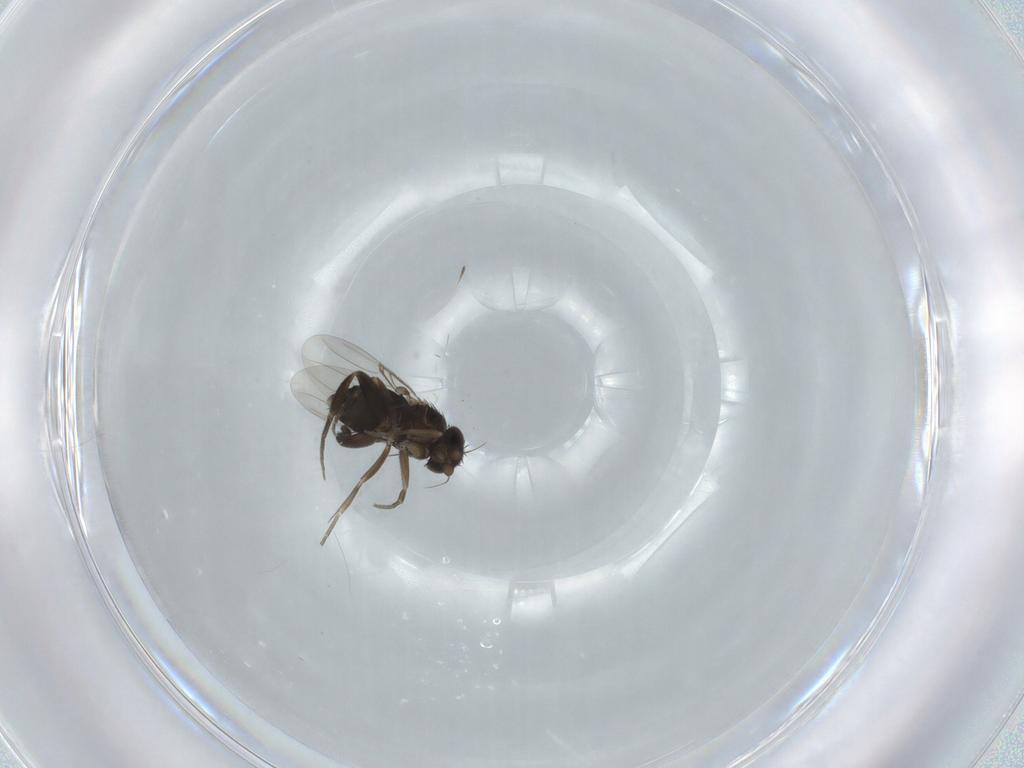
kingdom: Animalia
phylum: Arthropoda
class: Insecta
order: Diptera
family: Phoridae
